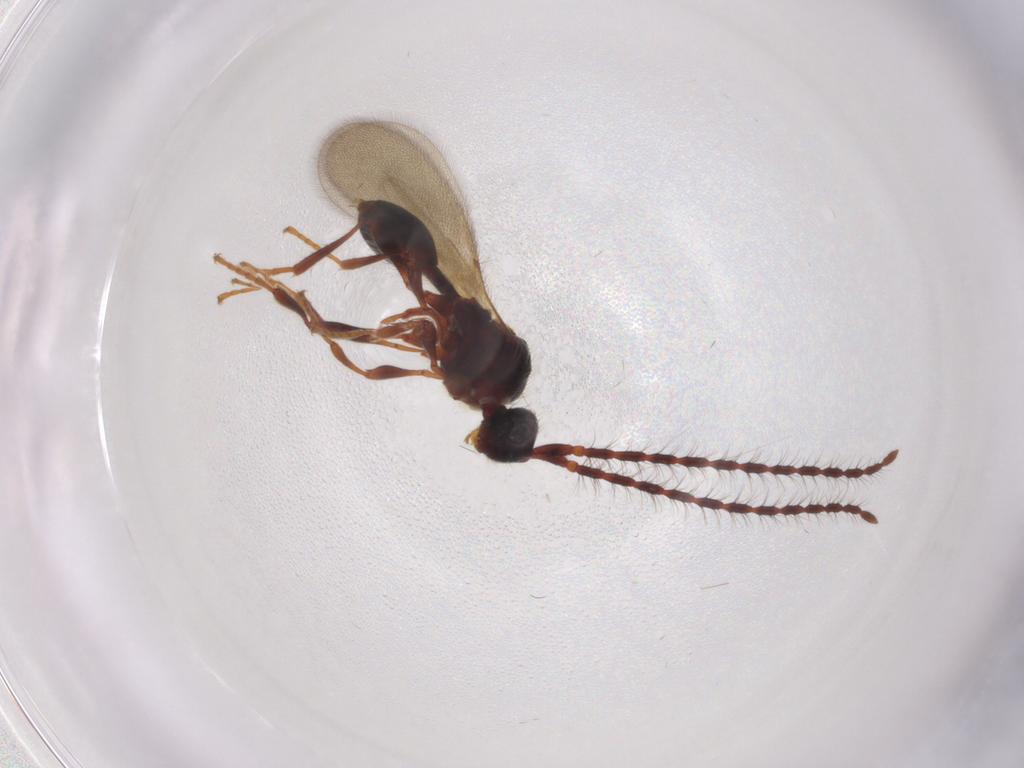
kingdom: Animalia
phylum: Arthropoda
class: Insecta
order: Hymenoptera
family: Diapriidae
